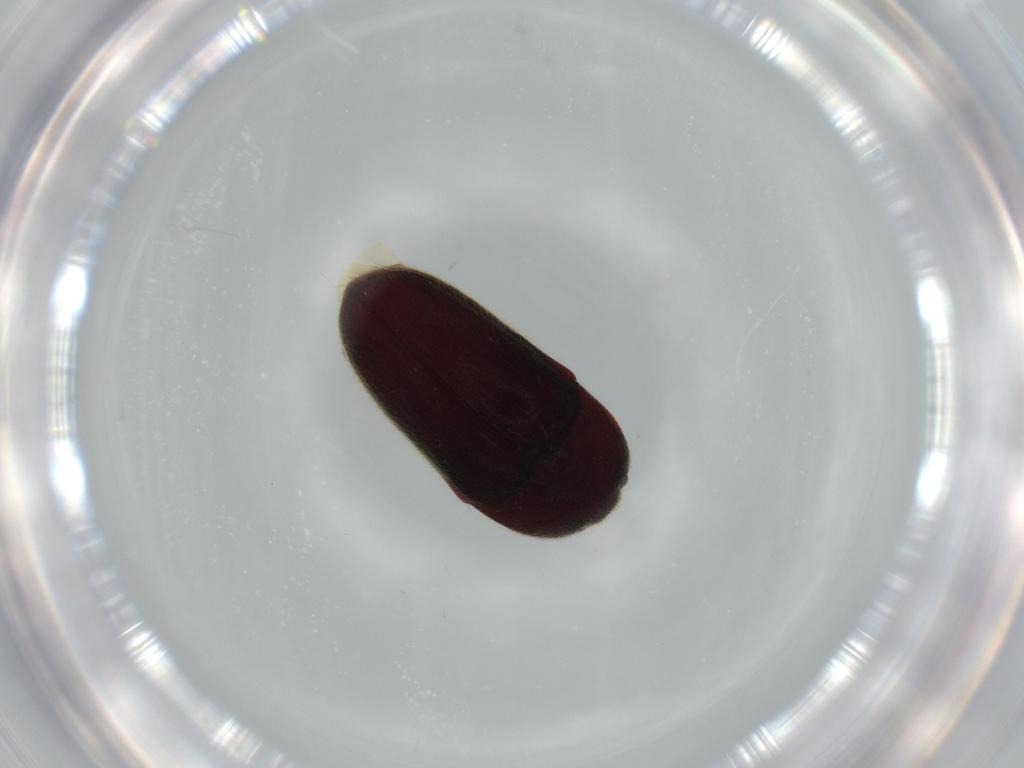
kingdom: Animalia
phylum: Arthropoda
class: Insecta
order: Coleoptera
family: Throscidae
